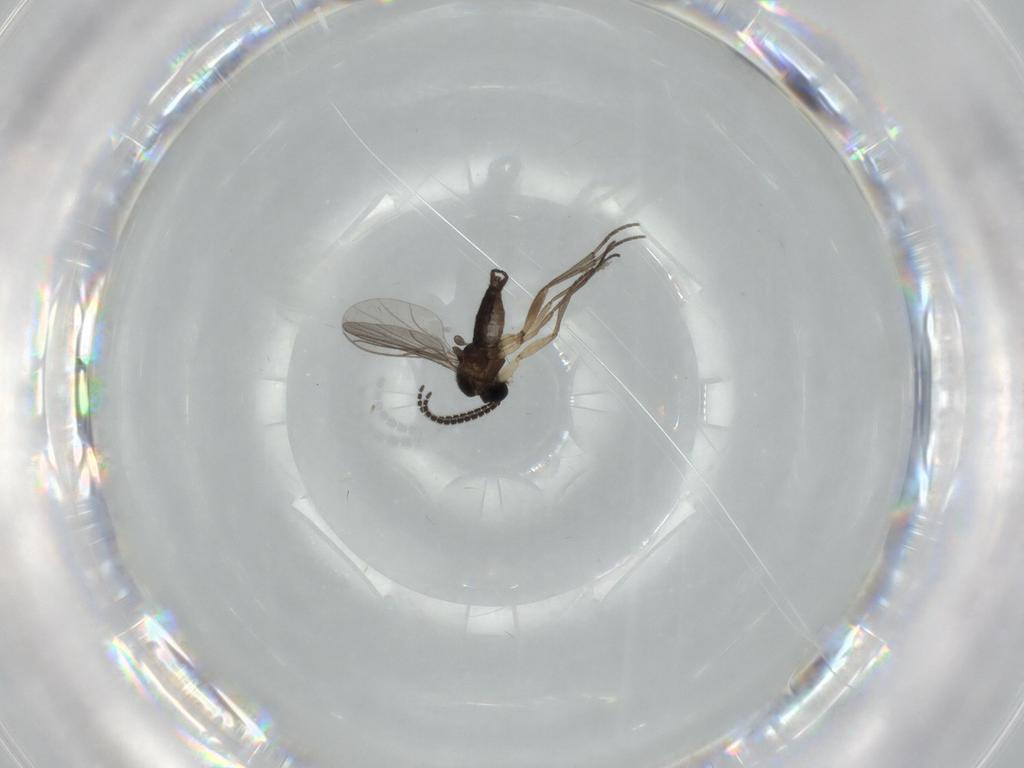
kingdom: Animalia
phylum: Arthropoda
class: Insecta
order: Diptera
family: Sciaridae
